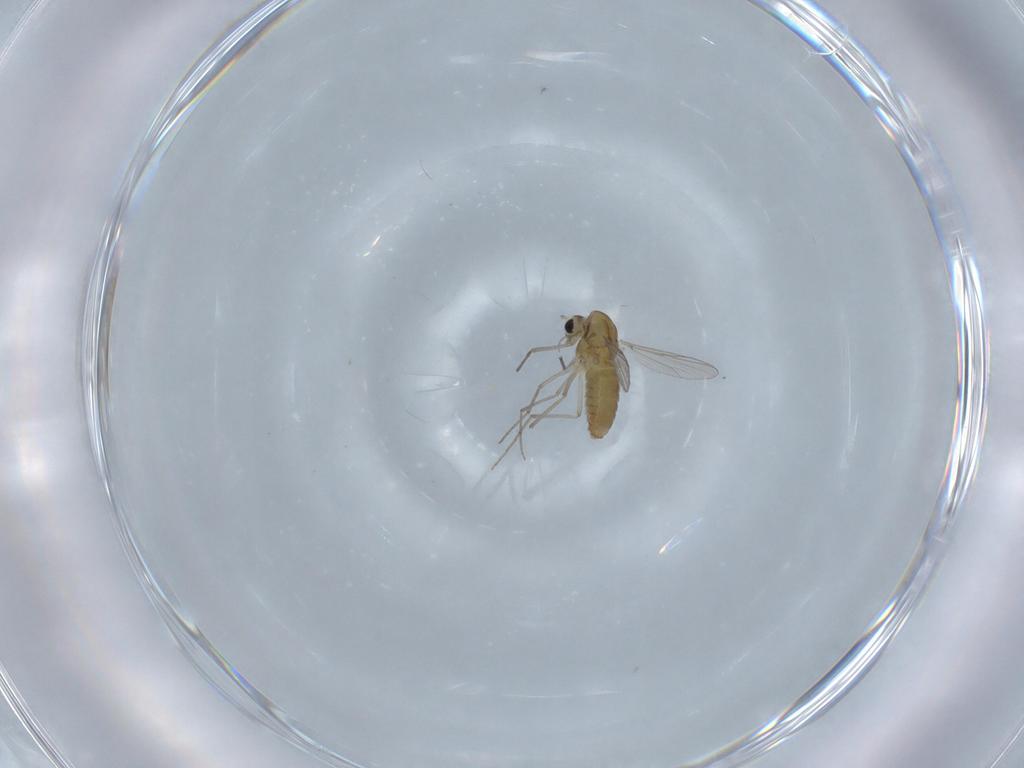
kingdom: Animalia
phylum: Arthropoda
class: Insecta
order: Diptera
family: Chironomidae
